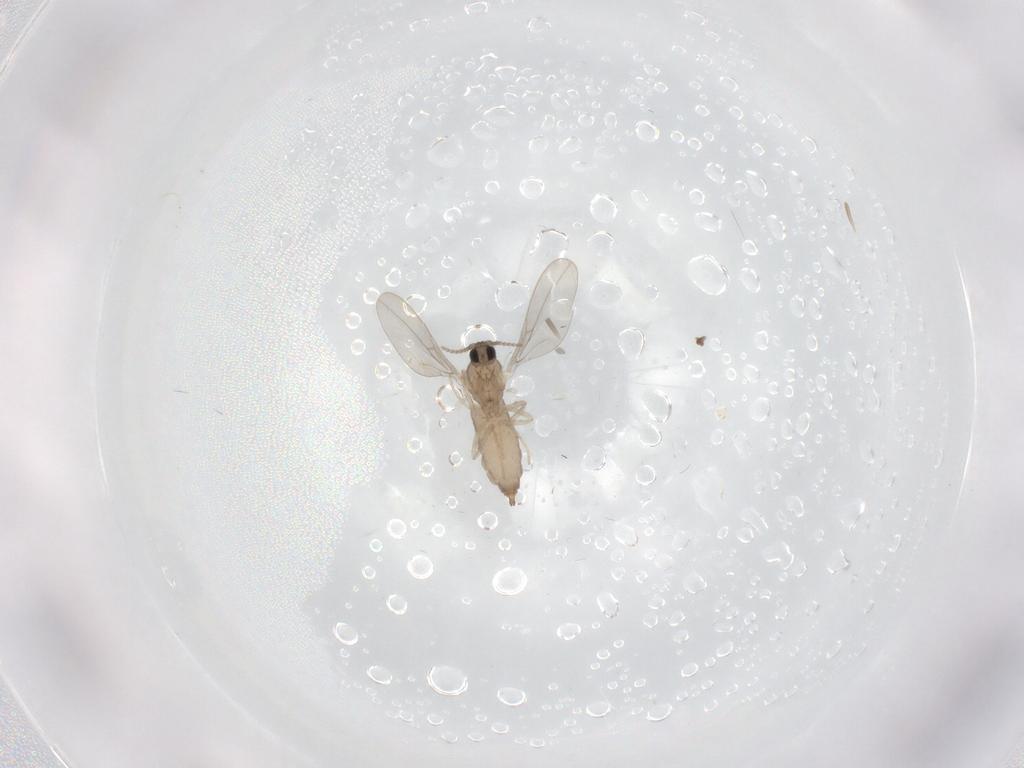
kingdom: Animalia
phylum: Arthropoda
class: Insecta
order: Diptera
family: Cecidomyiidae
